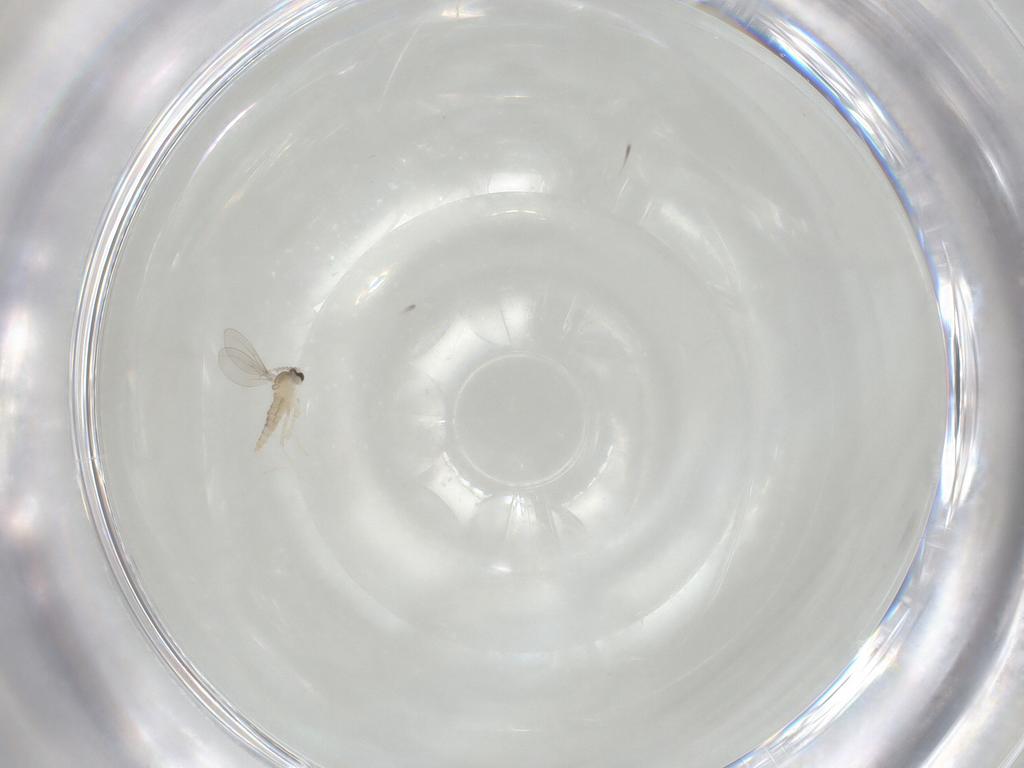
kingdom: Animalia
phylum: Arthropoda
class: Insecta
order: Diptera
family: Cecidomyiidae
